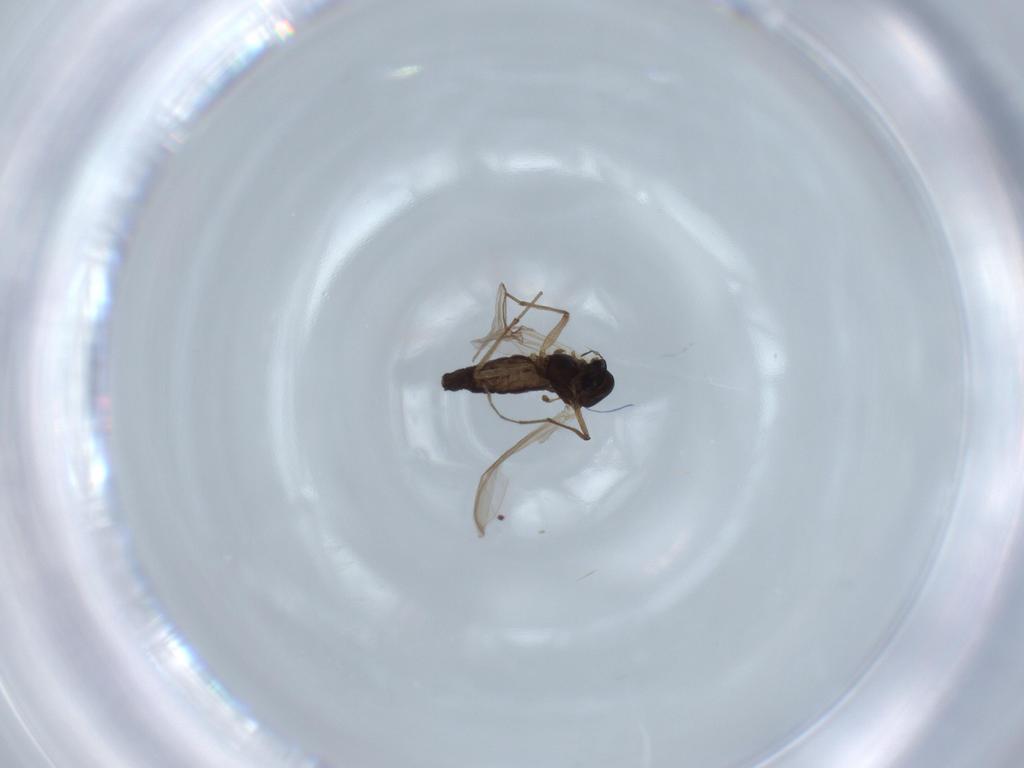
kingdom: Animalia
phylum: Arthropoda
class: Insecta
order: Diptera
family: Chironomidae
